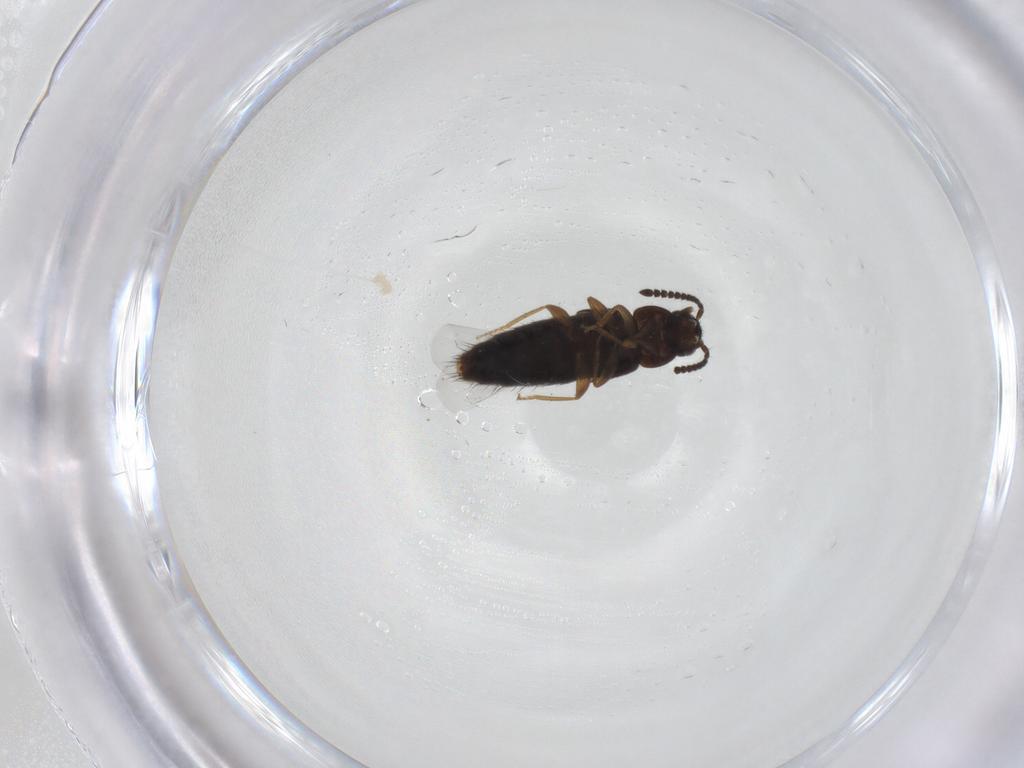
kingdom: Animalia
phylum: Arthropoda
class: Insecta
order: Coleoptera
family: Staphylinidae
